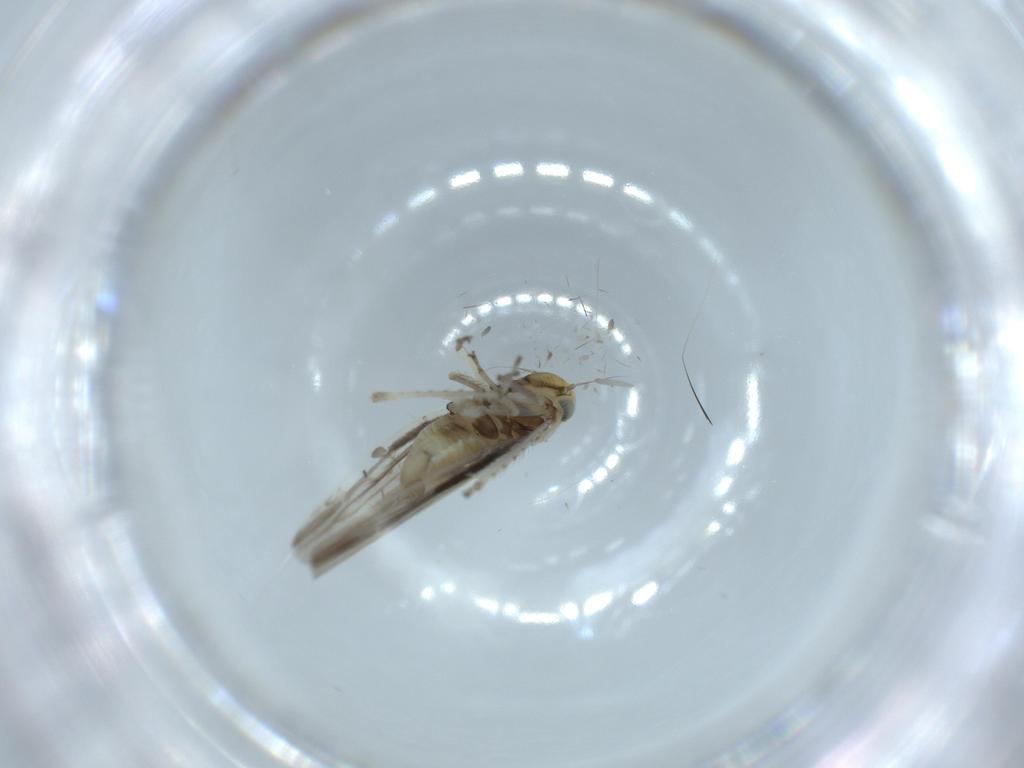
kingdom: Animalia
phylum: Arthropoda
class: Insecta
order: Hemiptera
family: Cicadellidae
